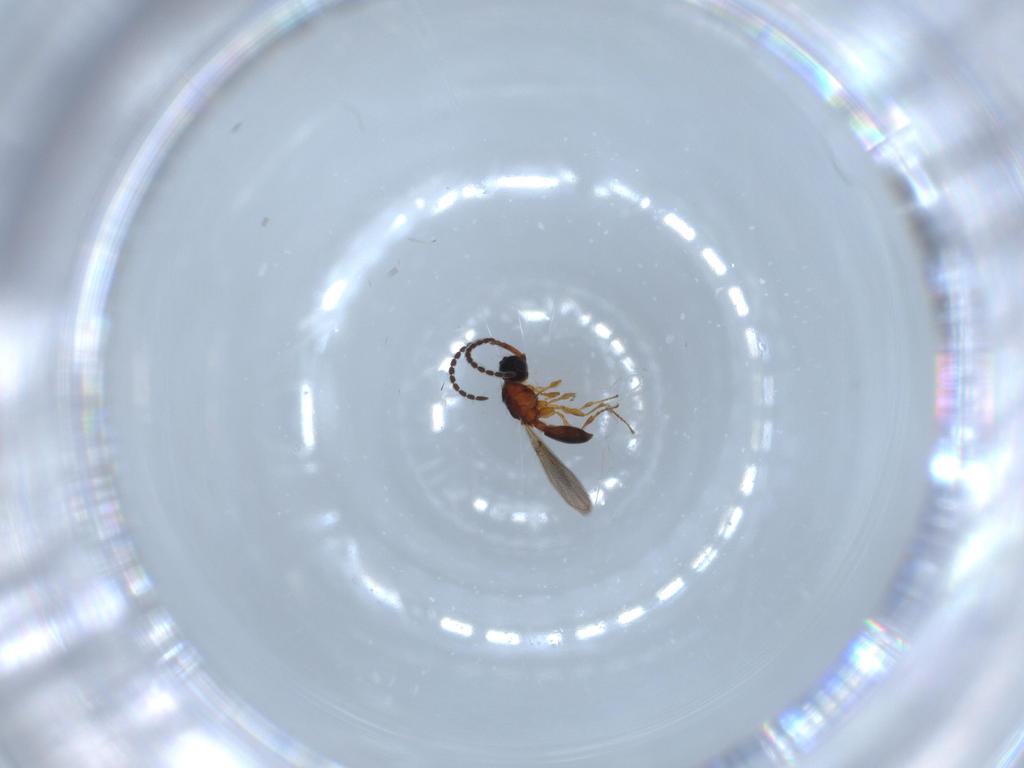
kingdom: Animalia
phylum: Arthropoda
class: Insecta
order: Hymenoptera
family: Diapriidae
